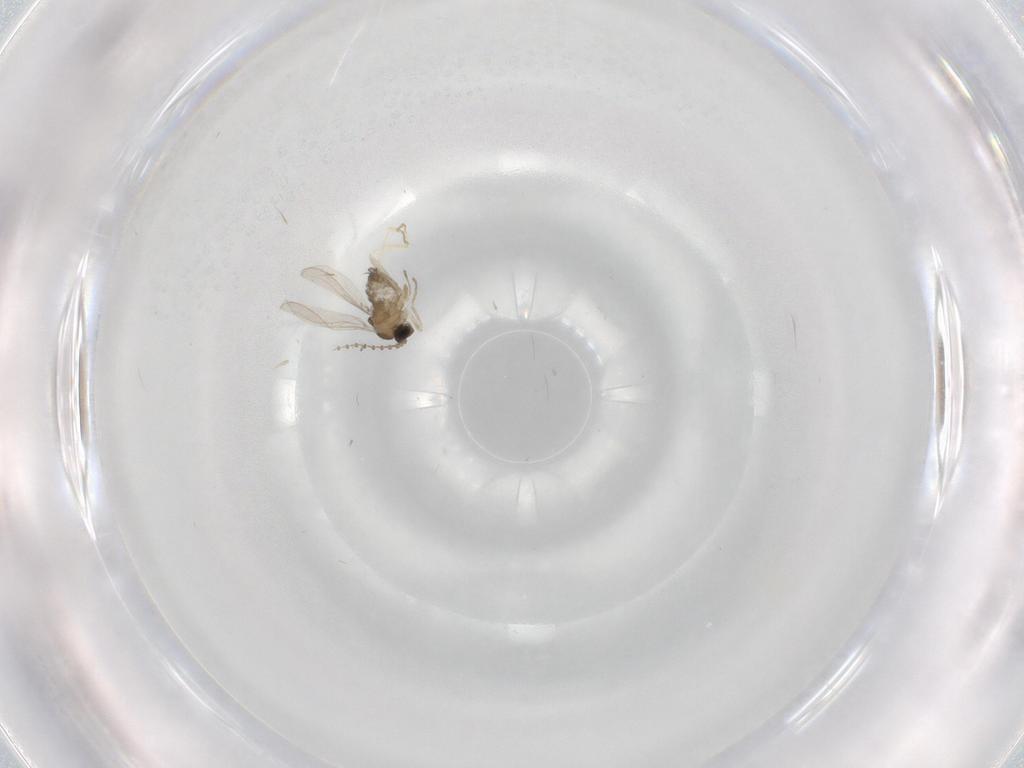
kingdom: Animalia
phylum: Arthropoda
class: Insecta
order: Diptera
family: Cecidomyiidae
